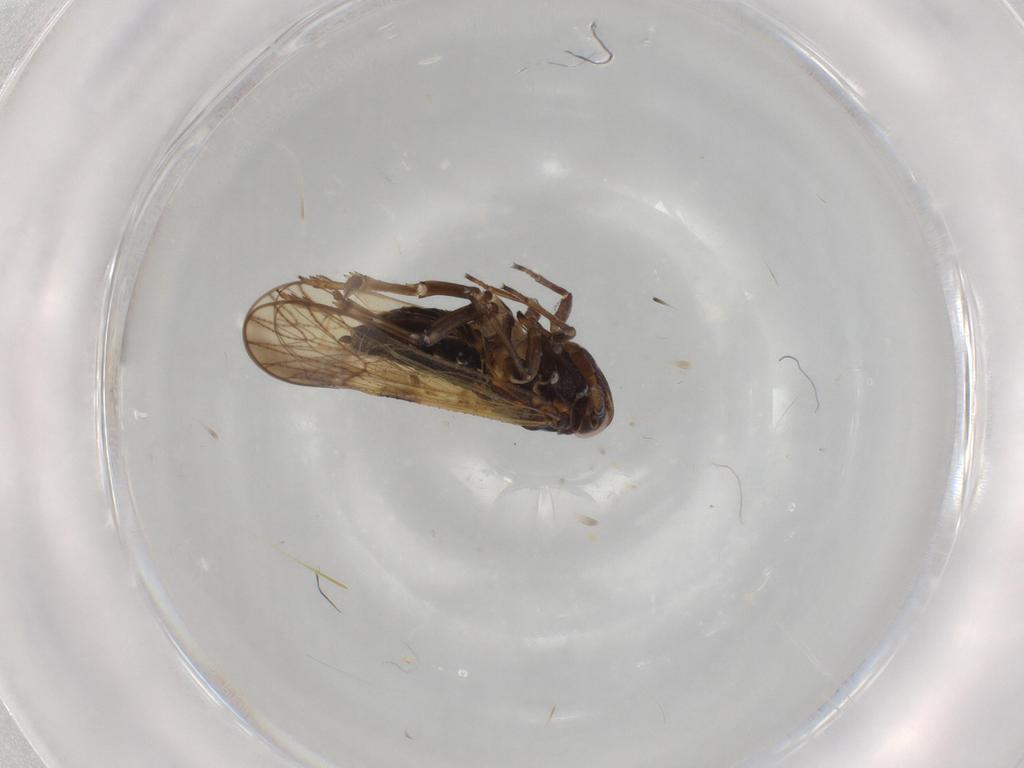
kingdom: Animalia
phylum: Arthropoda
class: Insecta
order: Hemiptera
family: Delphacidae
